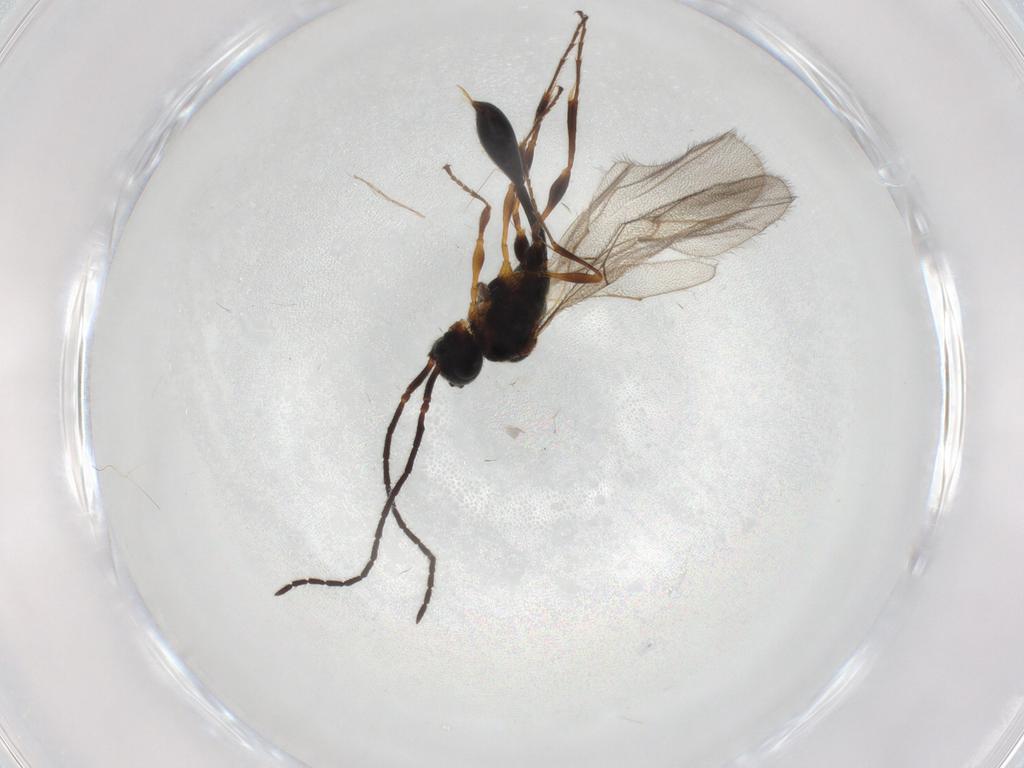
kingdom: Animalia
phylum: Arthropoda
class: Insecta
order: Hymenoptera
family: Diapriidae
